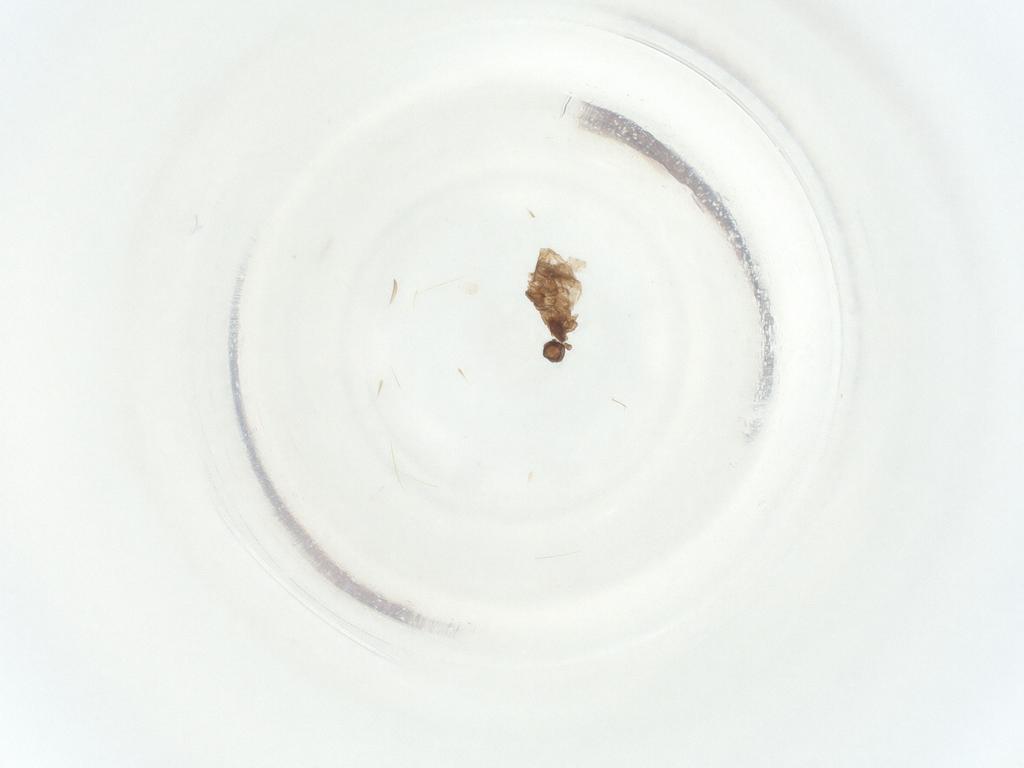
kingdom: Animalia
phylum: Arthropoda
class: Insecta
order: Diptera
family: Sciaridae
